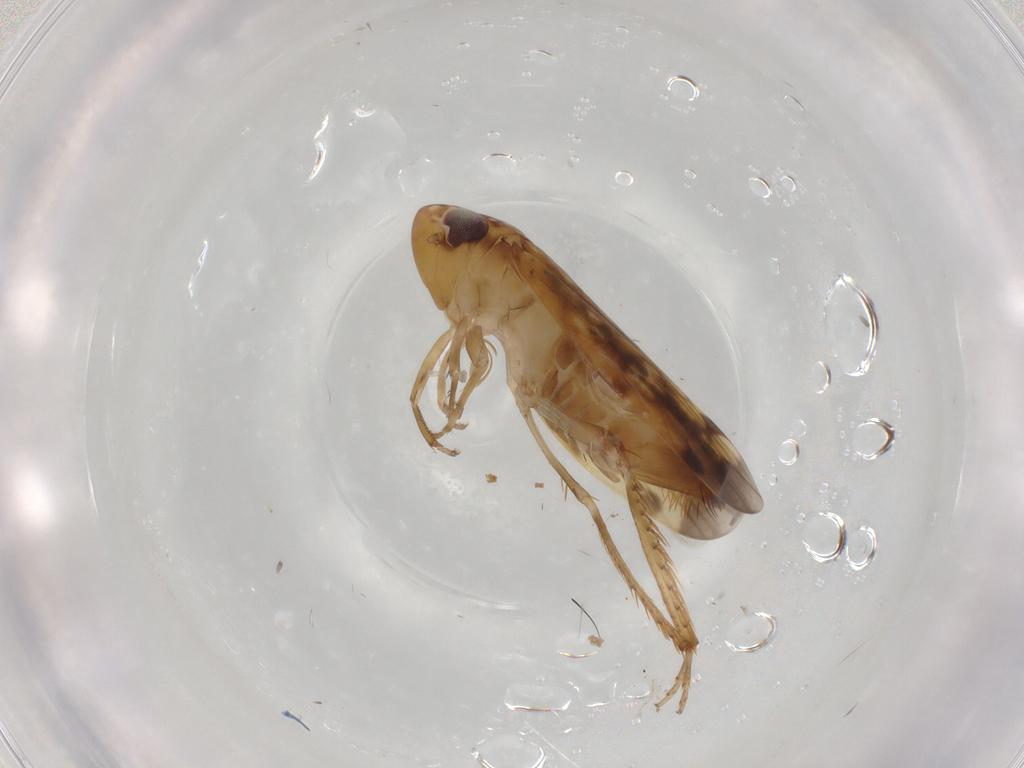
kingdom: Animalia
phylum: Arthropoda
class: Insecta
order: Hemiptera
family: Cicadellidae
